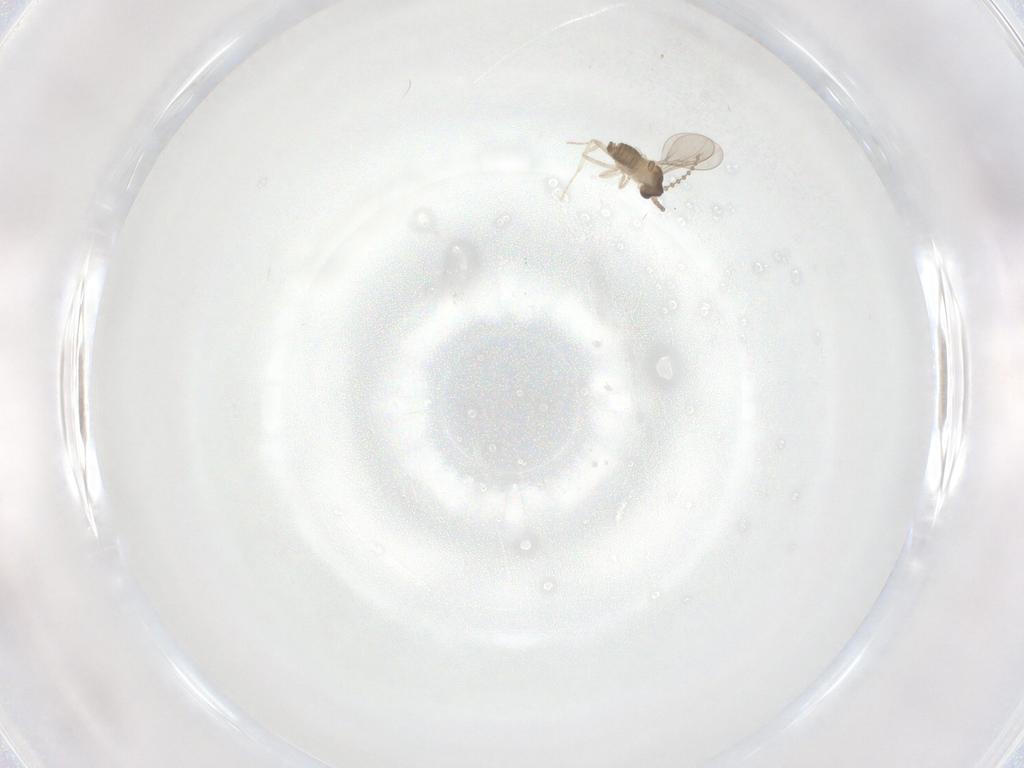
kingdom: Animalia
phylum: Arthropoda
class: Insecta
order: Diptera
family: Cecidomyiidae
